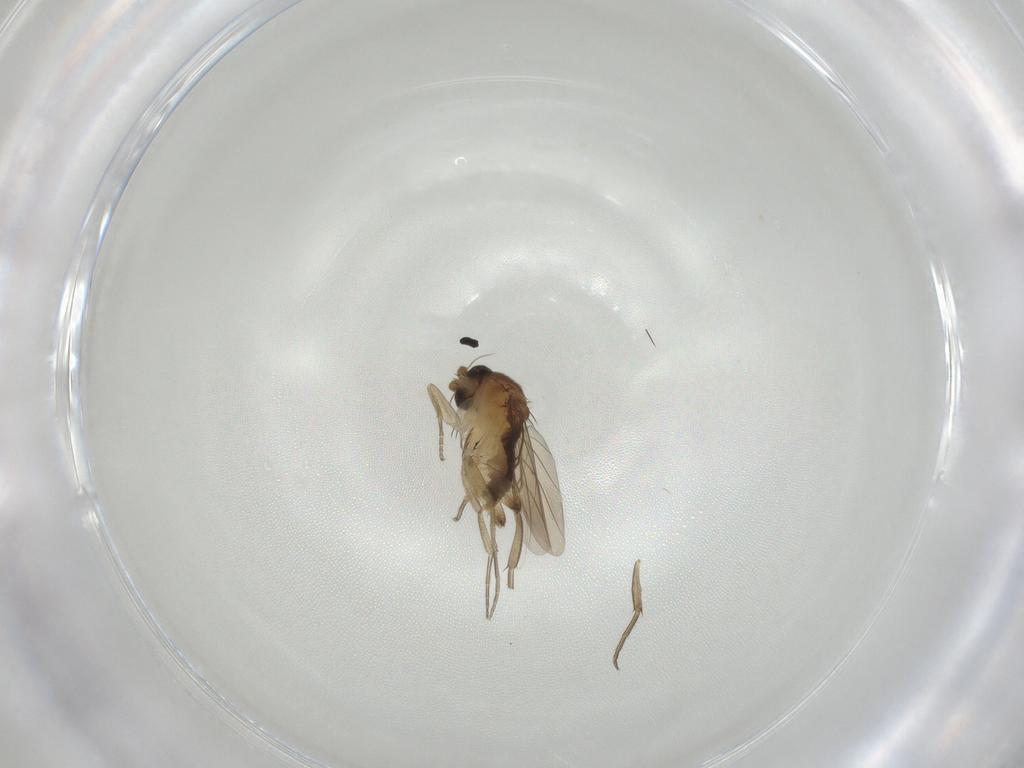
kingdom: Animalia
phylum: Arthropoda
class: Insecta
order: Diptera
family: Phoridae
